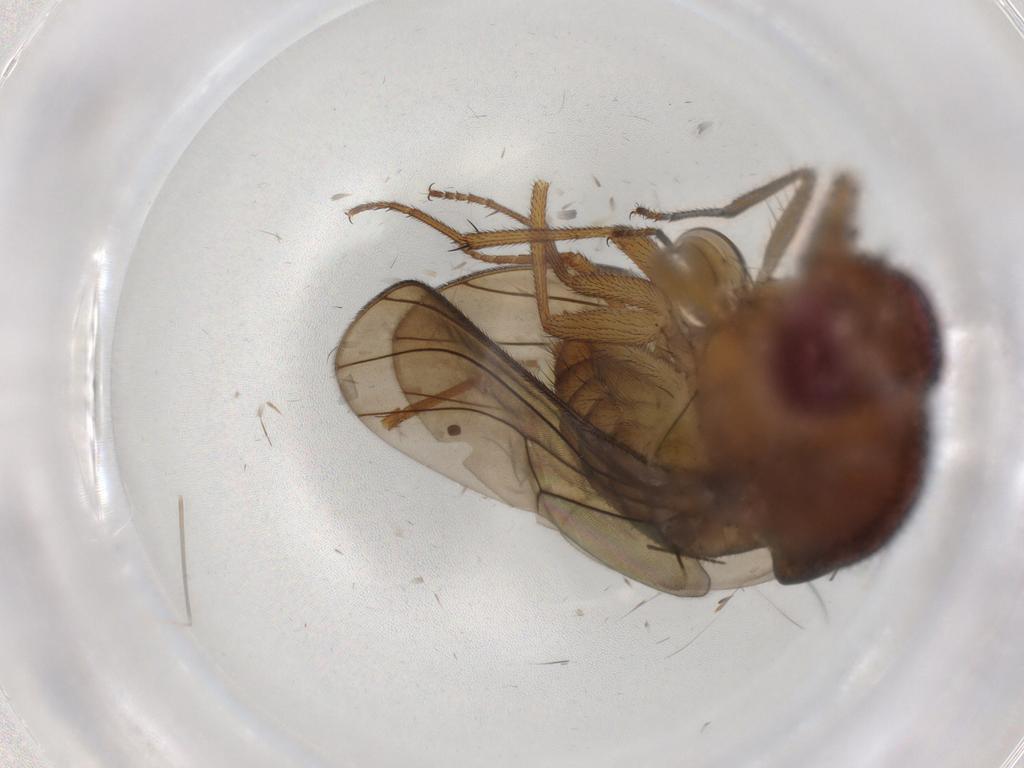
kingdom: Animalia
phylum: Arthropoda
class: Insecta
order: Diptera
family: Drosophilidae
